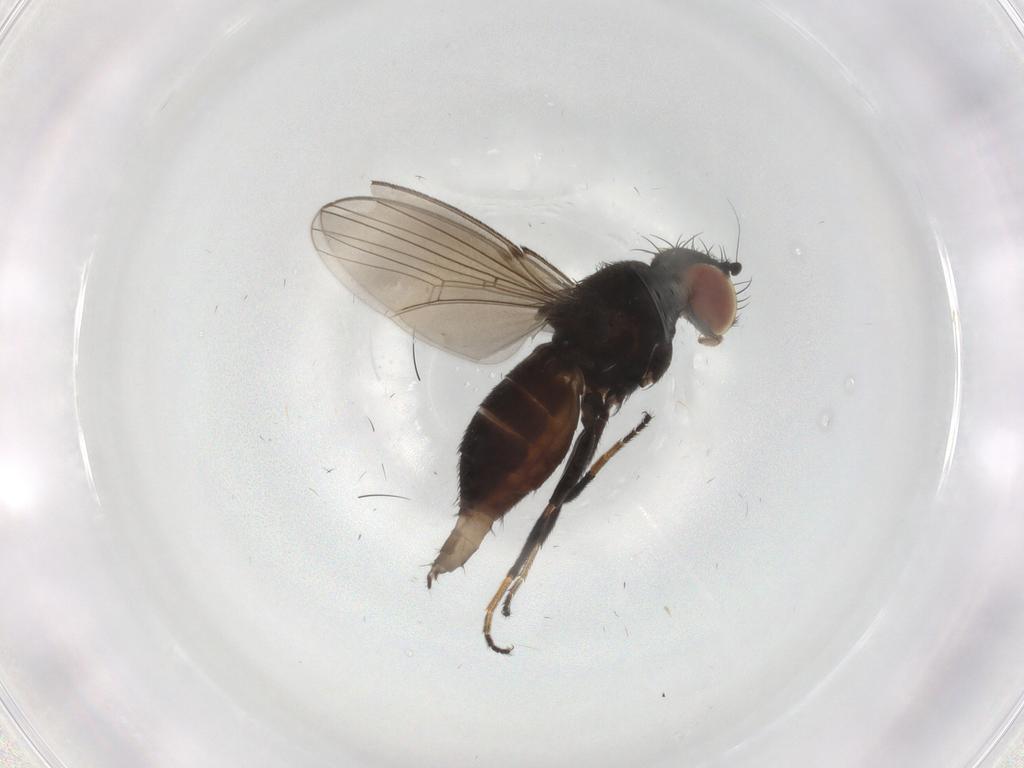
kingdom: Animalia
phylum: Arthropoda
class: Insecta
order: Diptera
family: Milichiidae
